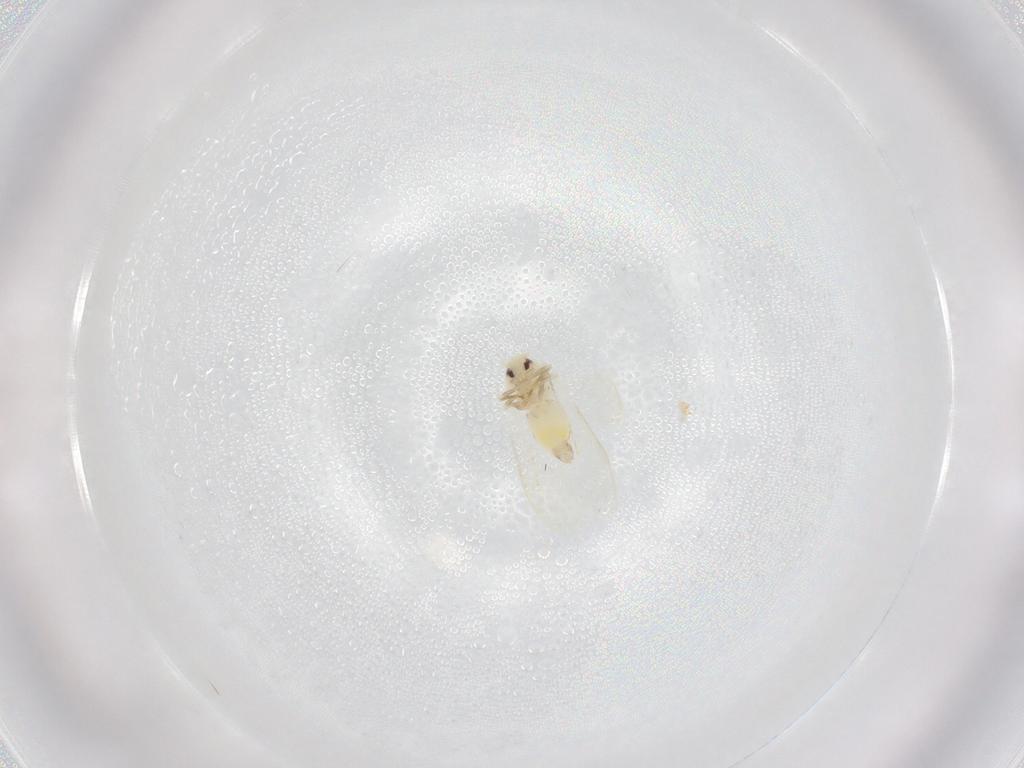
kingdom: Animalia
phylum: Arthropoda
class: Insecta
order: Hemiptera
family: Aleyrodidae
